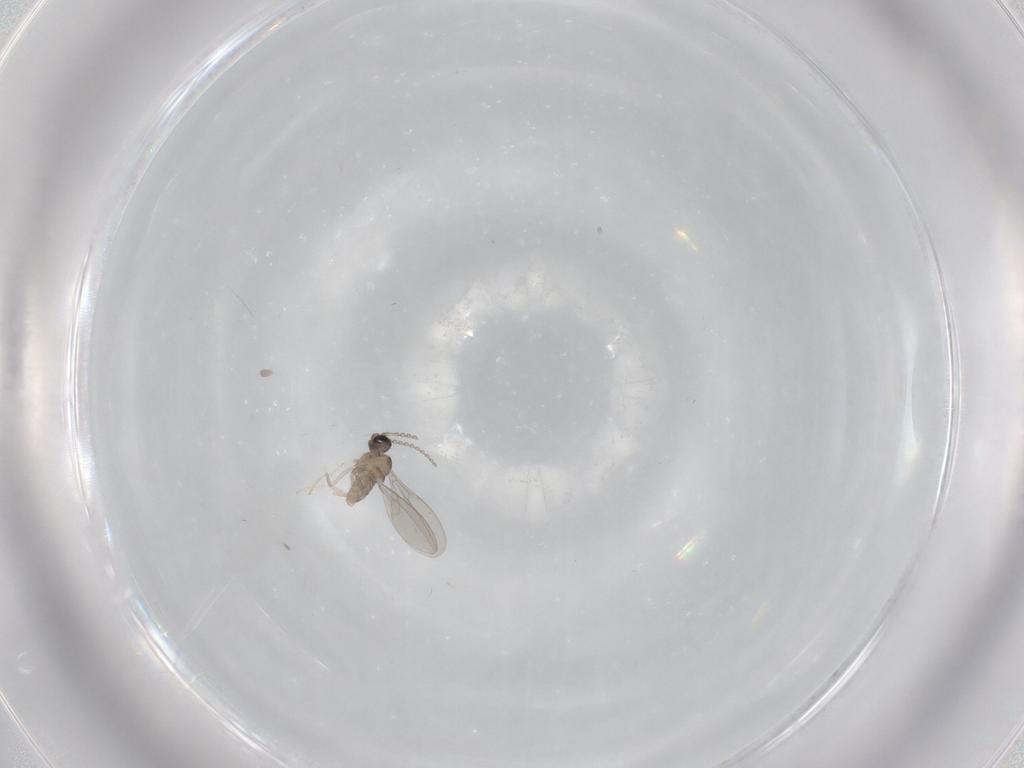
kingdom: Animalia
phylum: Arthropoda
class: Insecta
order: Diptera
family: Cecidomyiidae
